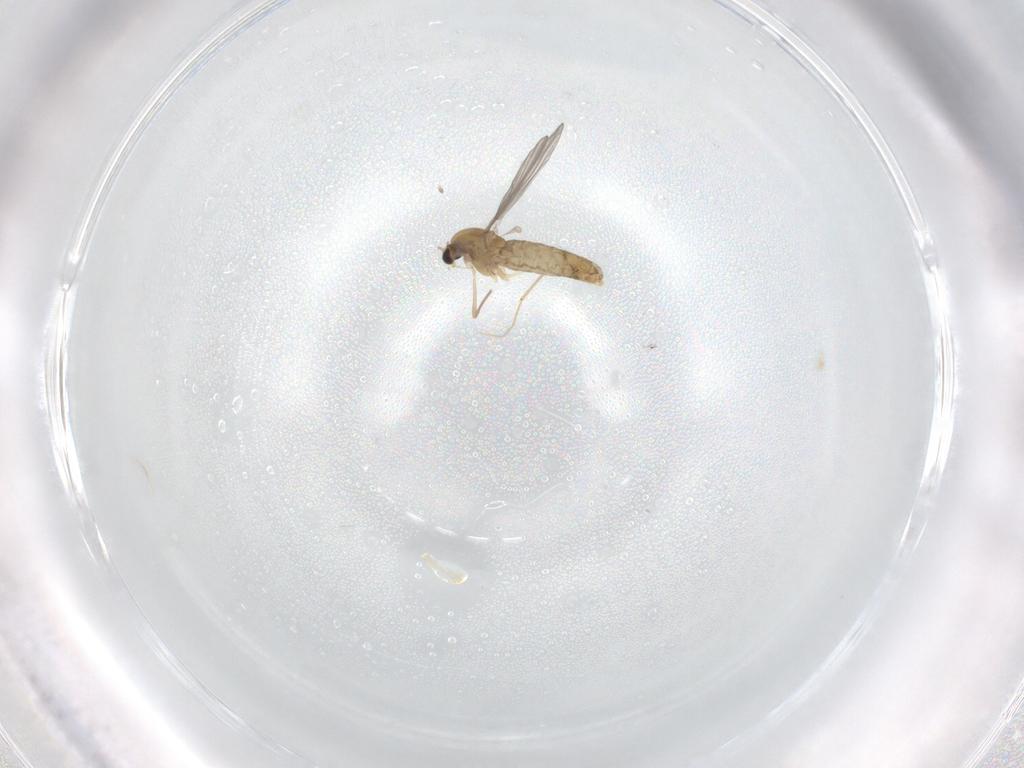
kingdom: Animalia
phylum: Arthropoda
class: Insecta
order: Diptera
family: Chironomidae
